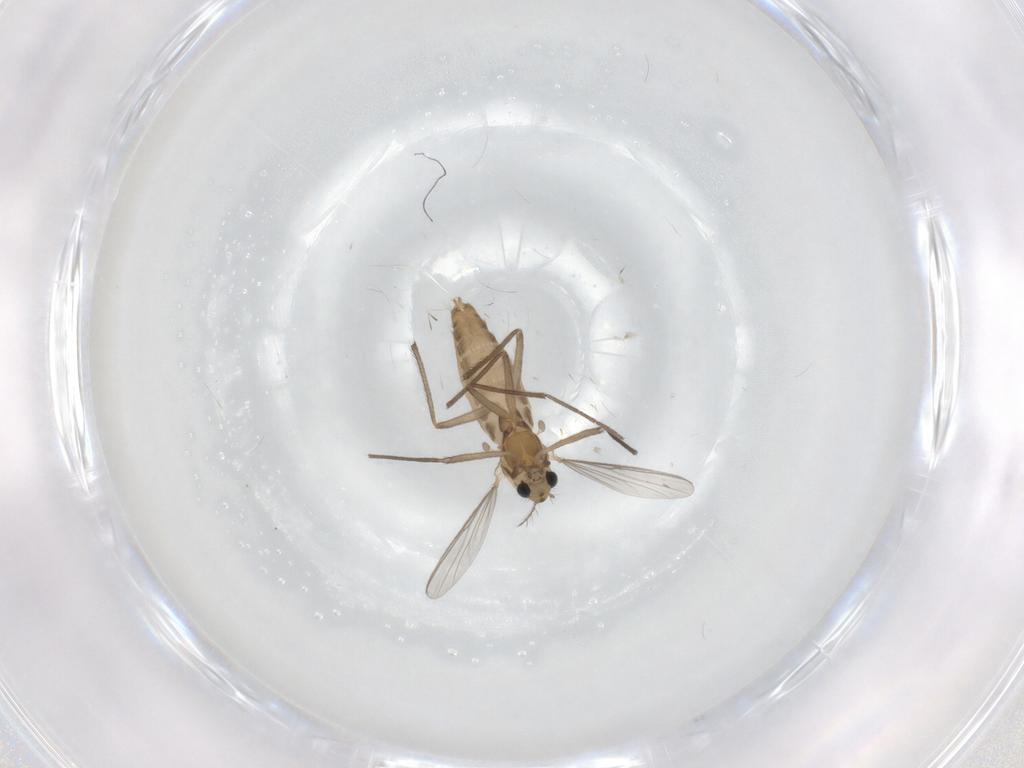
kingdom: Animalia
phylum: Arthropoda
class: Insecta
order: Diptera
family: Chironomidae
